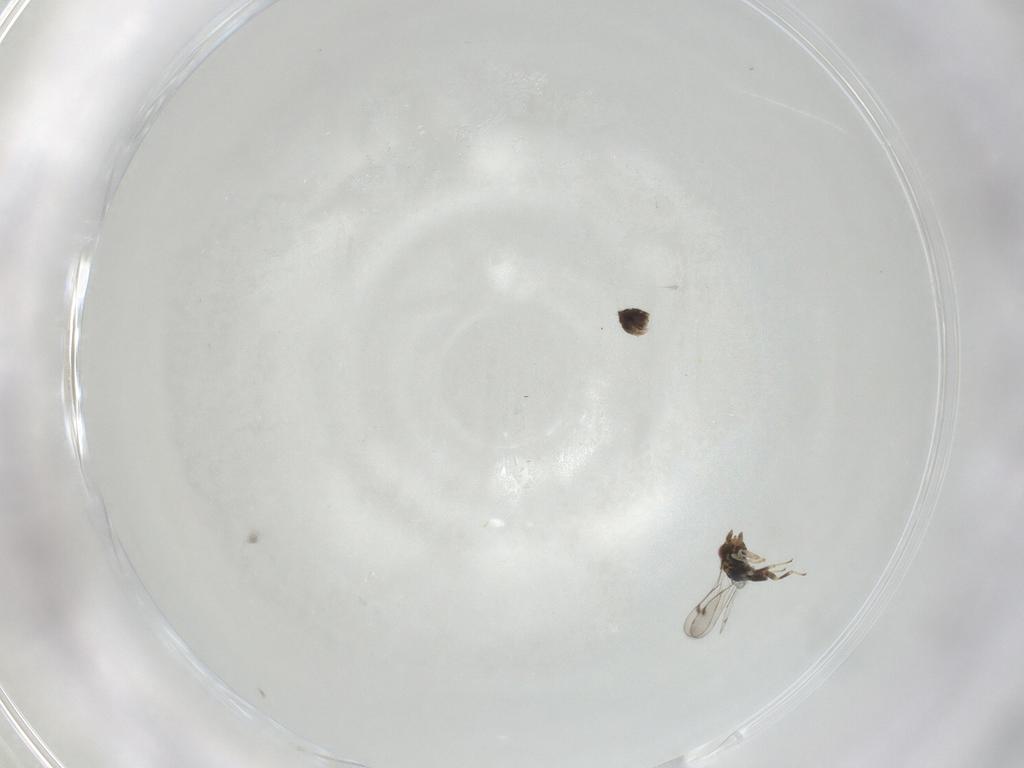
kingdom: Animalia
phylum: Arthropoda
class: Insecta
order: Hymenoptera
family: Eulophidae
